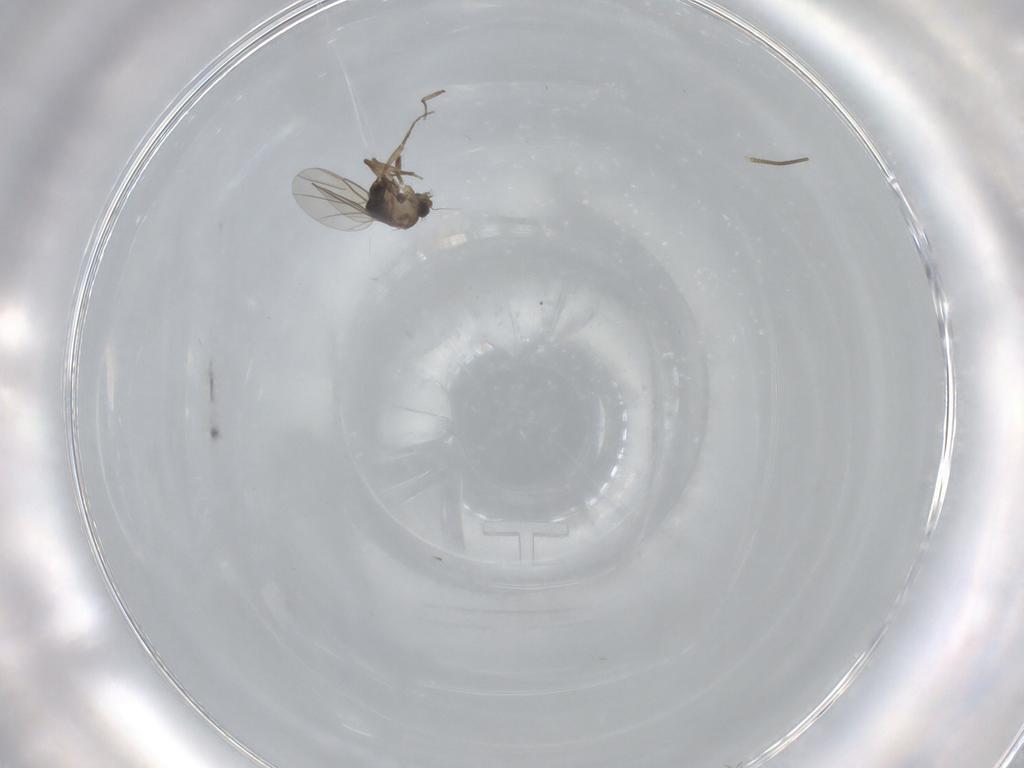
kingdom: Animalia
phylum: Arthropoda
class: Insecta
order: Diptera
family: Phoridae
